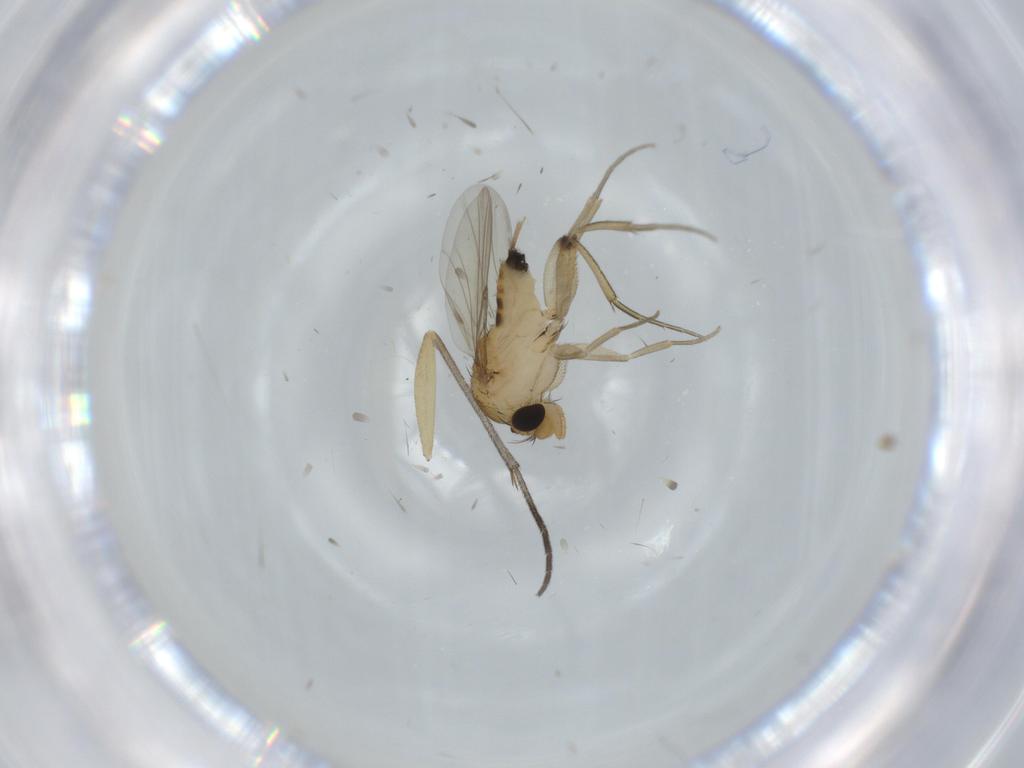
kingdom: Animalia
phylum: Arthropoda
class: Insecta
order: Diptera
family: Phoridae
